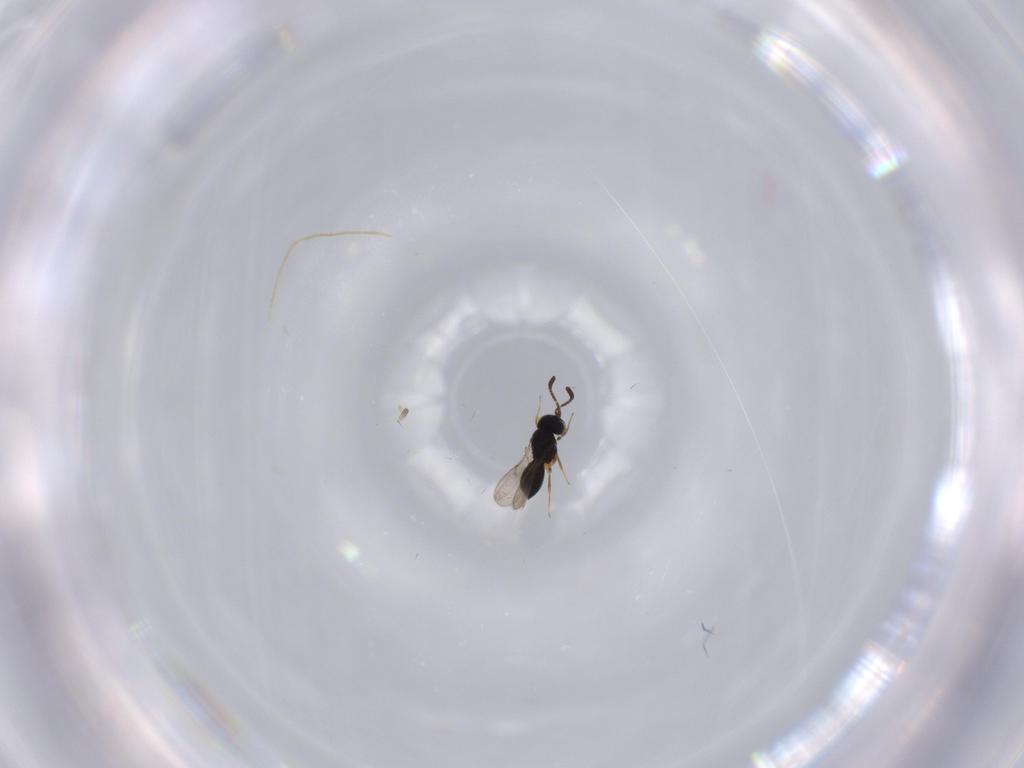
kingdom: Animalia
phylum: Arthropoda
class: Insecta
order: Hymenoptera
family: Scelionidae
